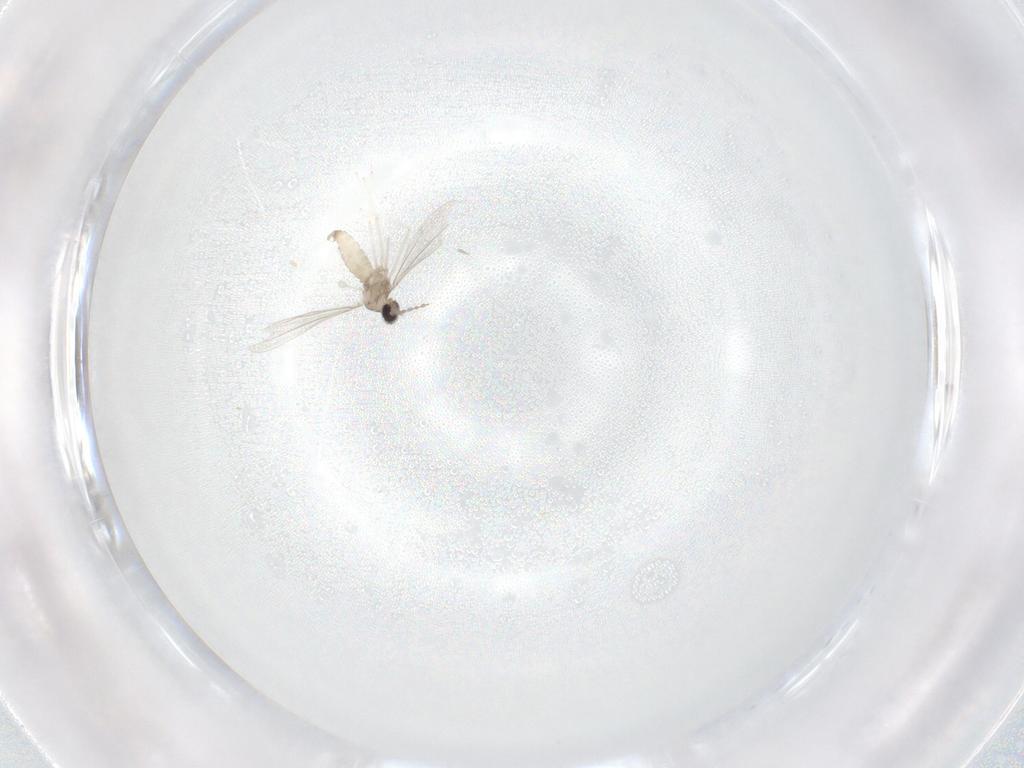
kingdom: Animalia
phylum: Arthropoda
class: Insecta
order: Diptera
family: Cecidomyiidae
